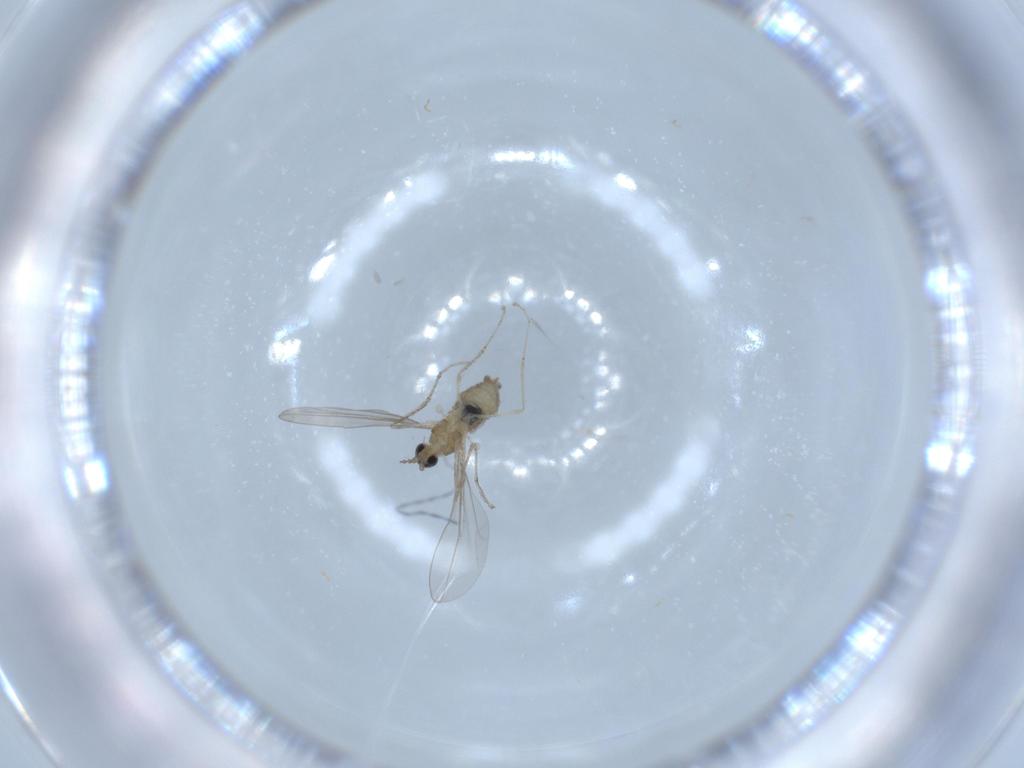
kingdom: Animalia
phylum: Arthropoda
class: Insecta
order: Diptera
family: Cecidomyiidae
